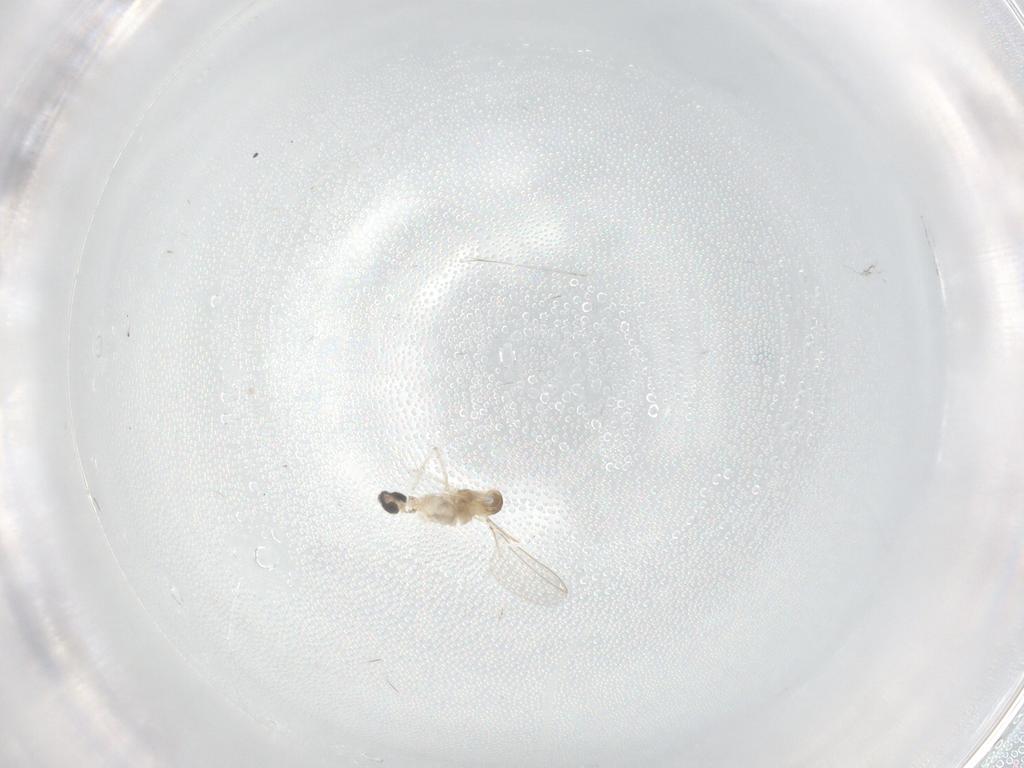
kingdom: Animalia
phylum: Arthropoda
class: Insecta
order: Diptera
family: Cecidomyiidae
